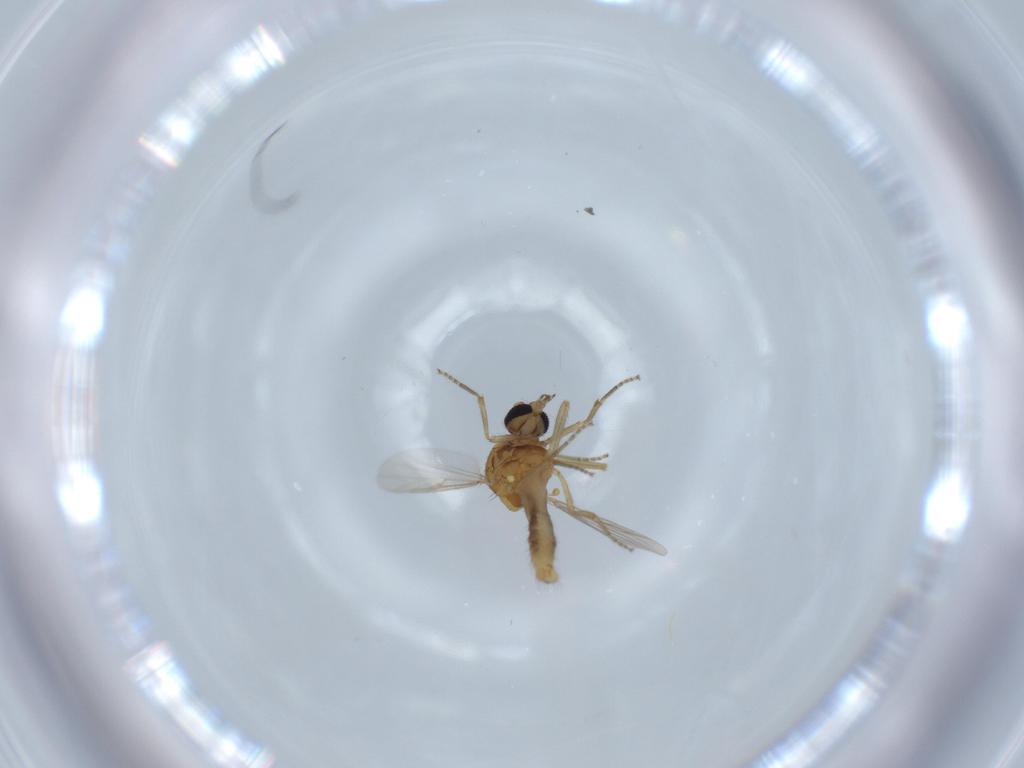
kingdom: Animalia
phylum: Arthropoda
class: Insecta
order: Diptera
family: Ceratopogonidae
